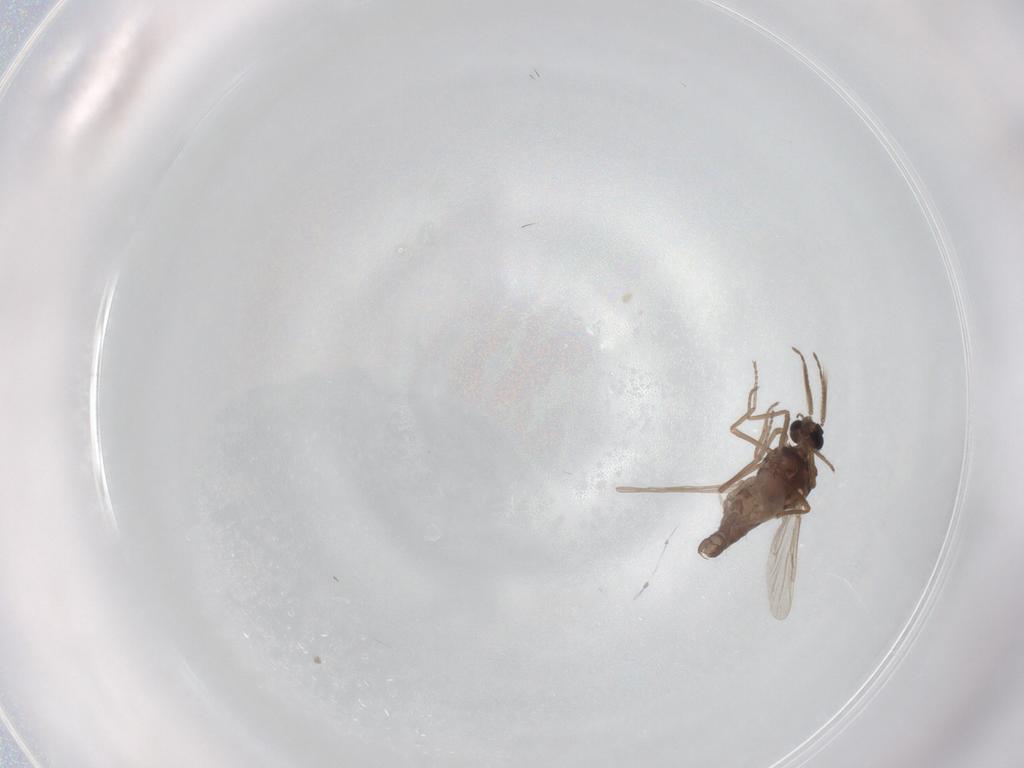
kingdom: Animalia
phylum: Arthropoda
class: Insecta
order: Diptera
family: Ceratopogonidae
